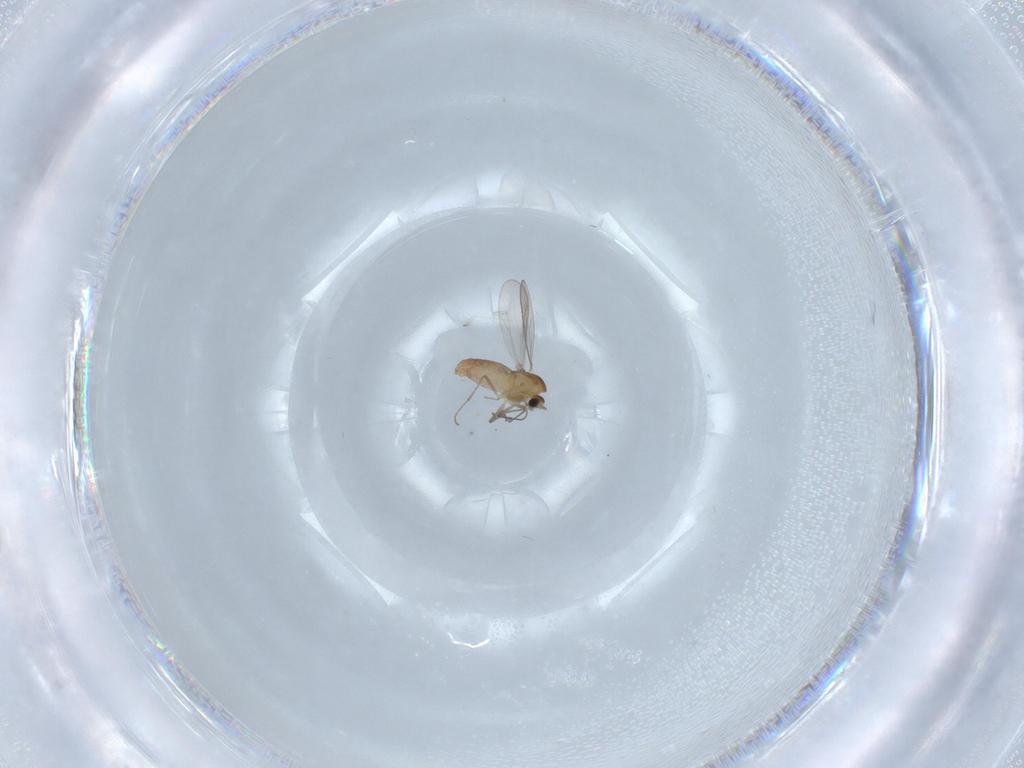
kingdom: Animalia
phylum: Arthropoda
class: Insecta
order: Diptera
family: Chironomidae
